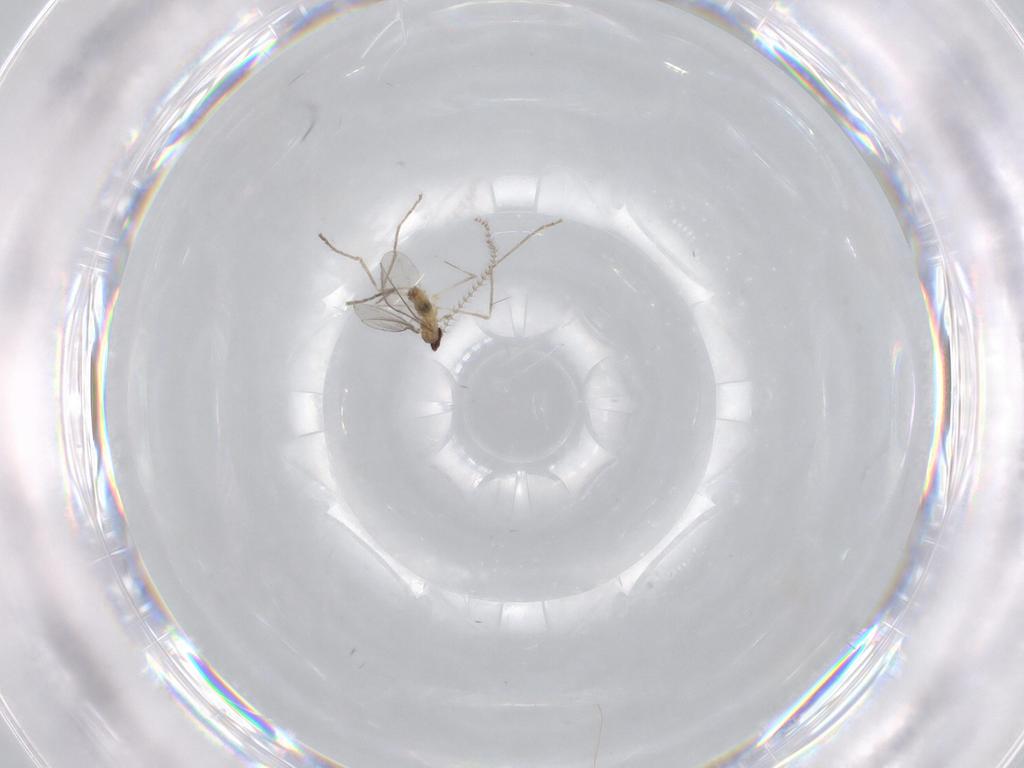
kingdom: Animalia
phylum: Arthropoda
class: Insecta
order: Diptera
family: Cecidomyiidae
